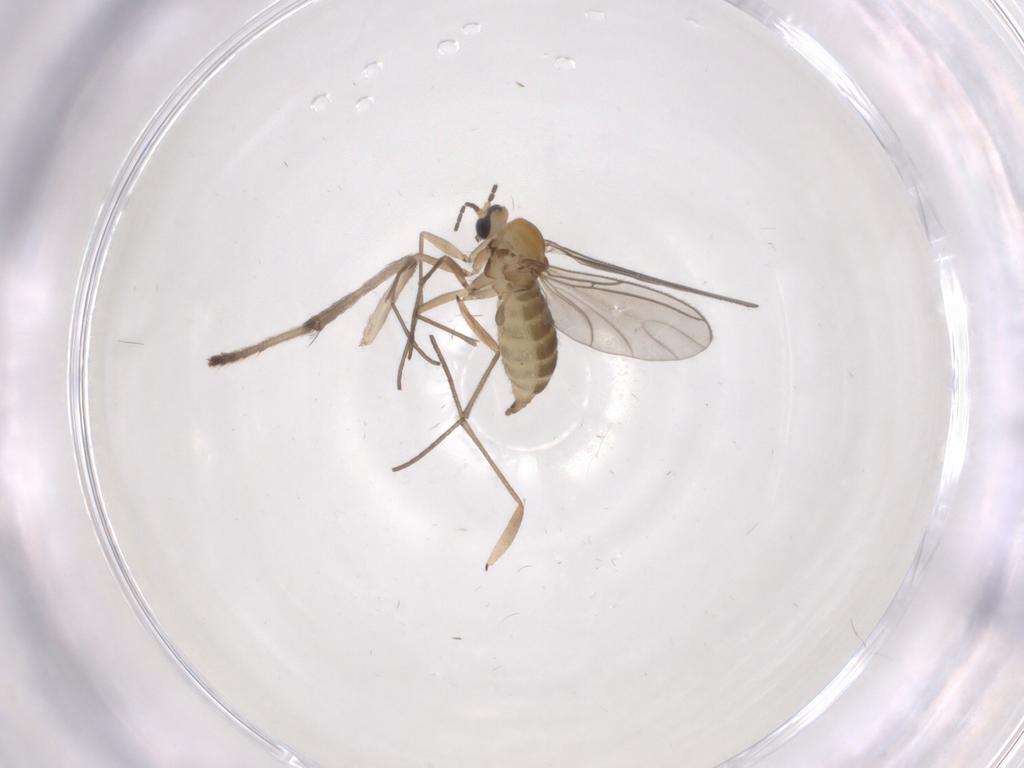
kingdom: Animalia
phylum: Arthropoda
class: Insecta
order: Diptera
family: Sciaridae
